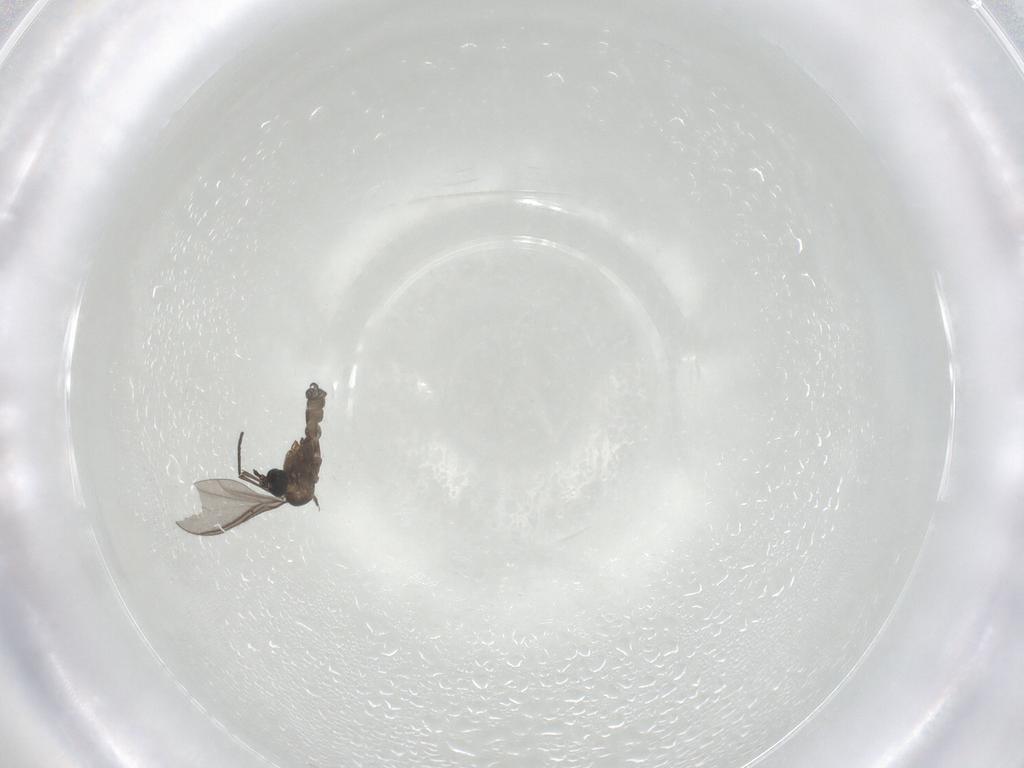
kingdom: Animalia
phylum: Arthropoda
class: Insecta
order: Diptera
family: Sciaridae
